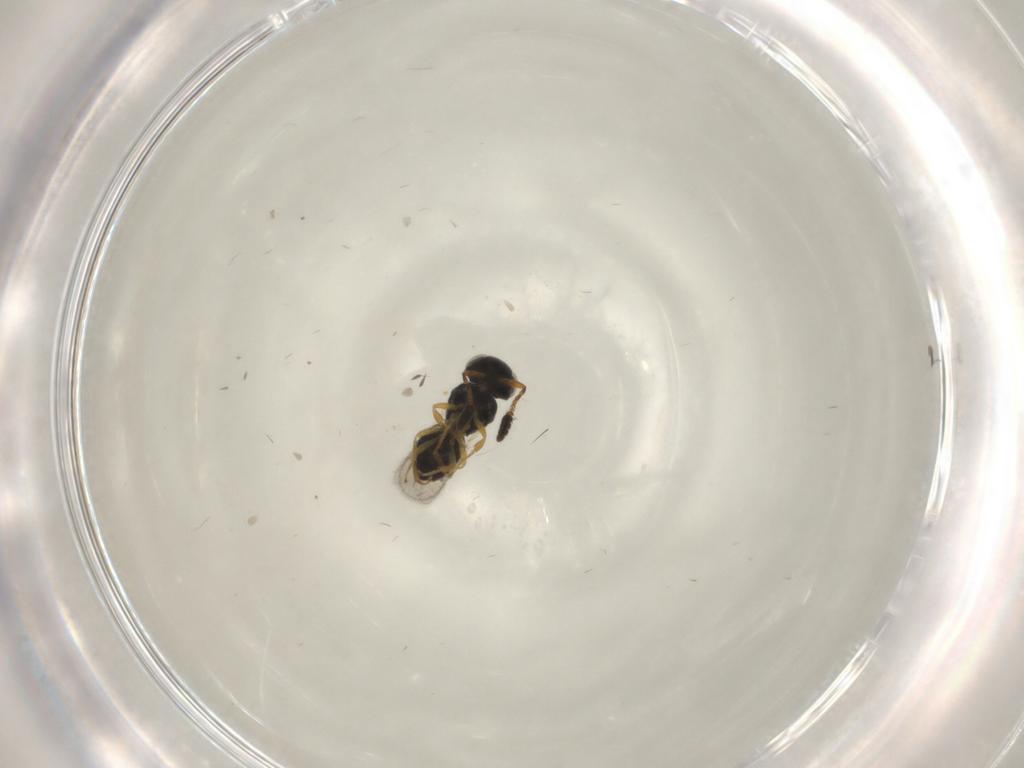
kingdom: Animalia
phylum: Arthropoda
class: Insecta
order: Hymenoptera
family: Scelionidae
